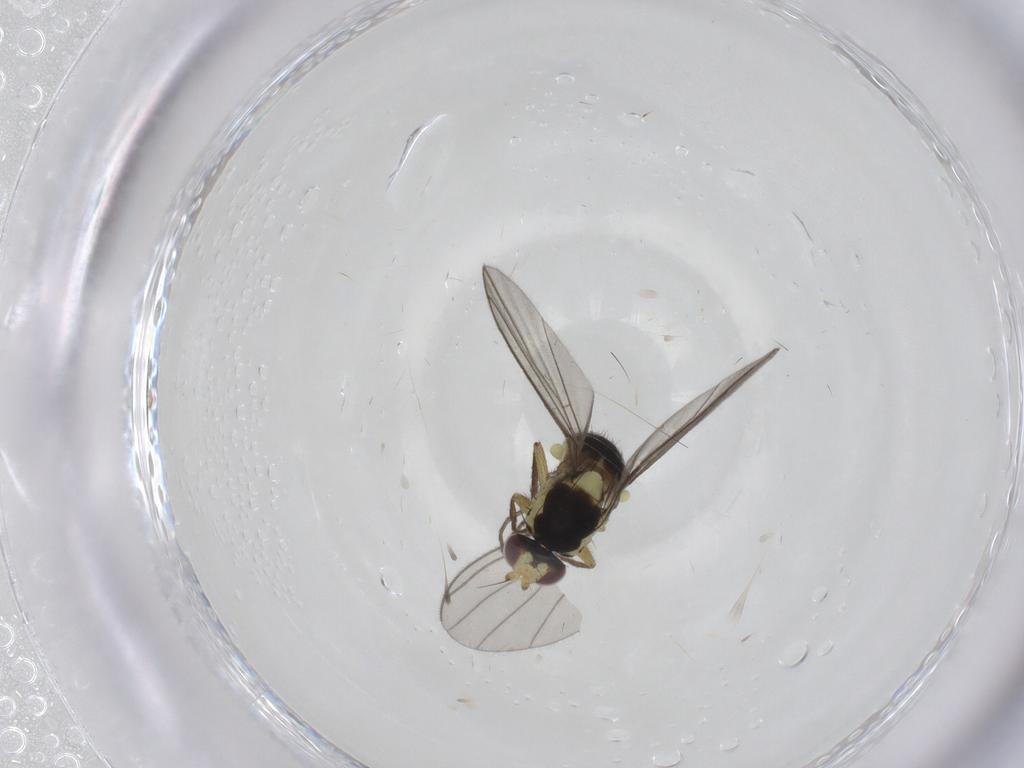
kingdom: Animalia
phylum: Arthropoda
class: Insecta
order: Diptera
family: Agromyzidae
